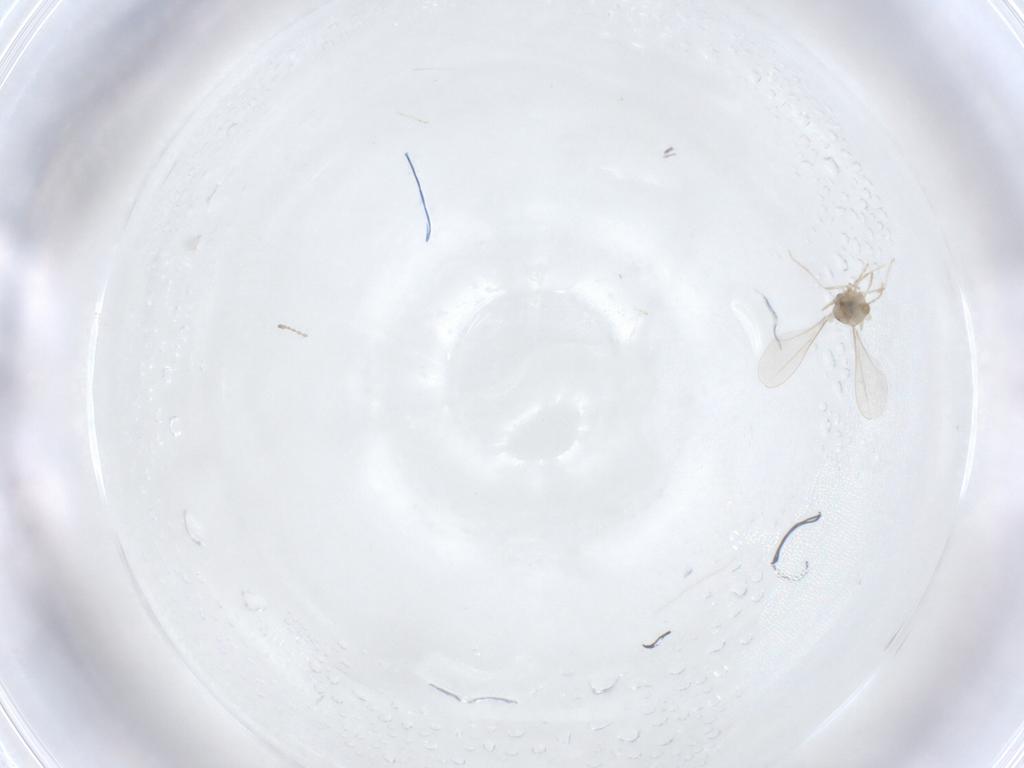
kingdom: Animalia
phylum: Arthropoda
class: Insecta
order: Diptera
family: Cecidomyiidae
